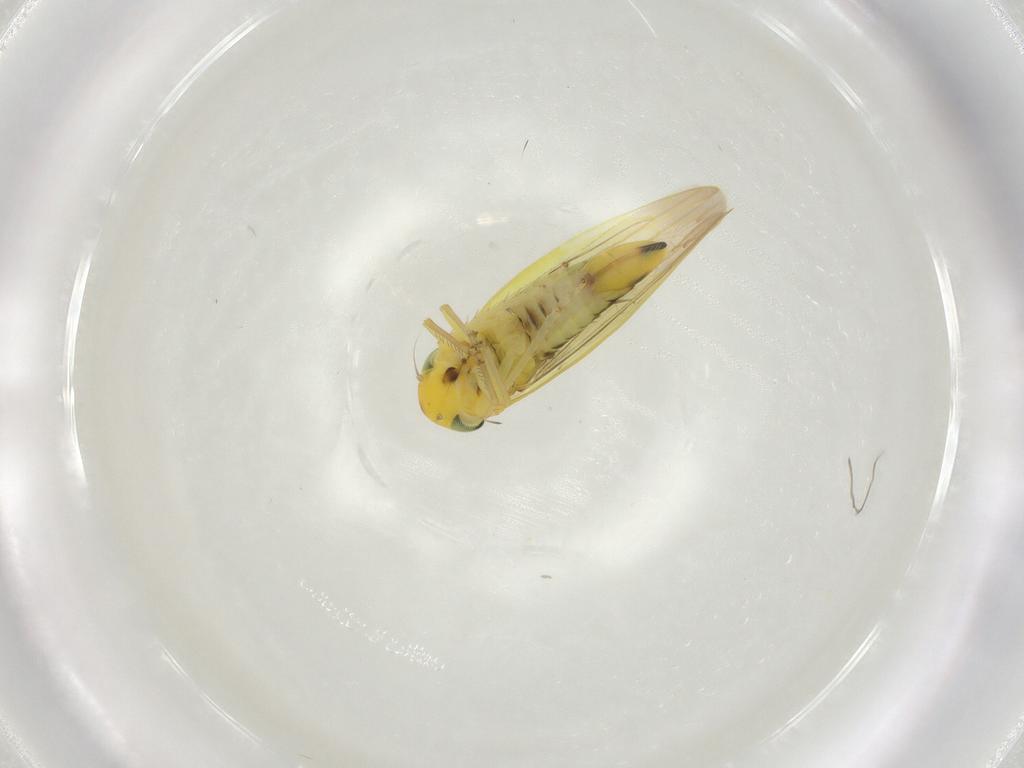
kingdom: Animalia
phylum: Arthropoda
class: Insecta
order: Hemiptera
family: Cicadellidae
